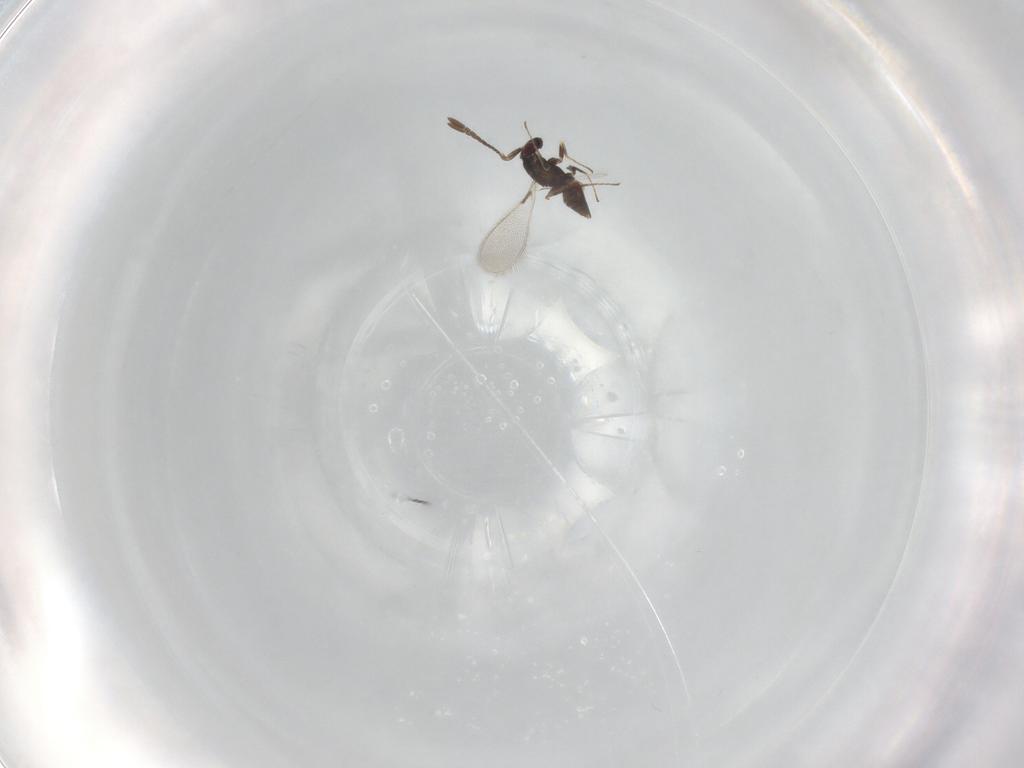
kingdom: Animalia
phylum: Arthropoda
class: Insecta
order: Hymenoptera
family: Mymaridae
